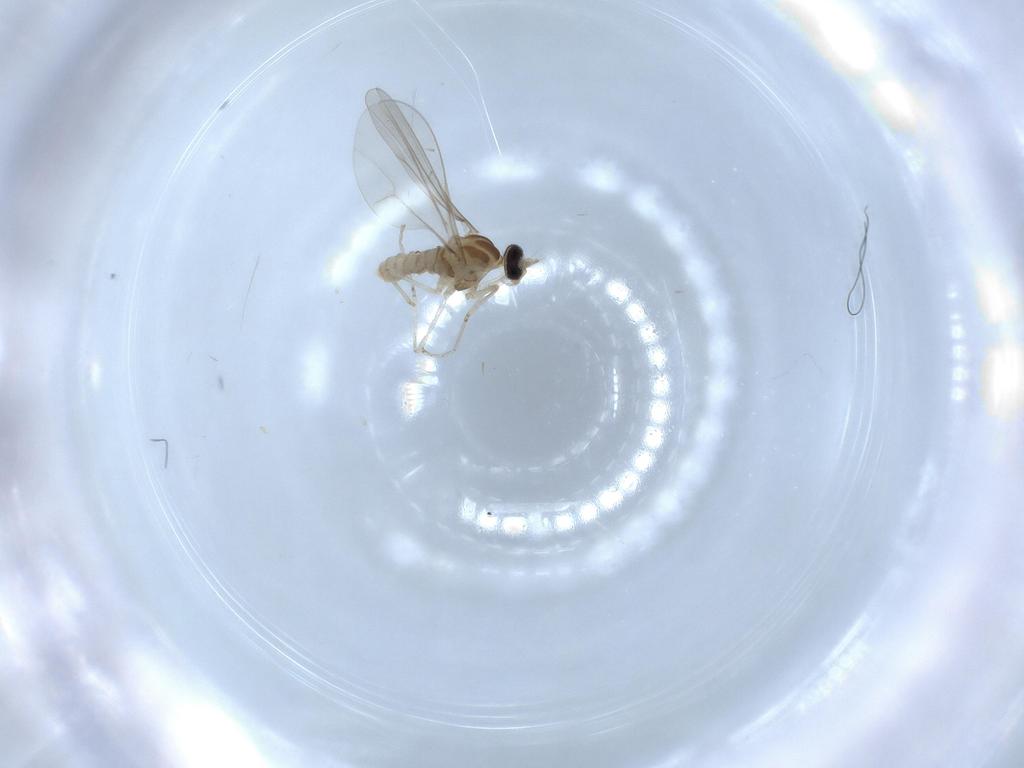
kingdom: Animalia
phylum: Arthropoda
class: Insecta
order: Diptera
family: Cecidomyiidae
